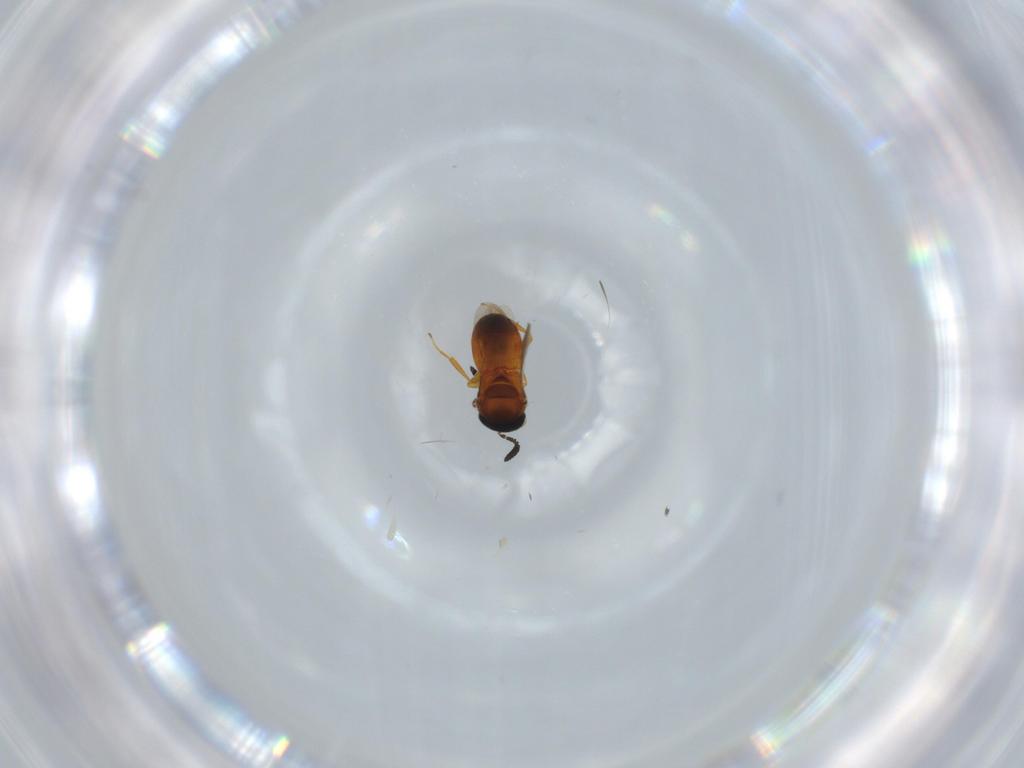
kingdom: Animalia
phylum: Arthropoda
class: Insecta
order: Hymenoptera
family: Scelionidae
